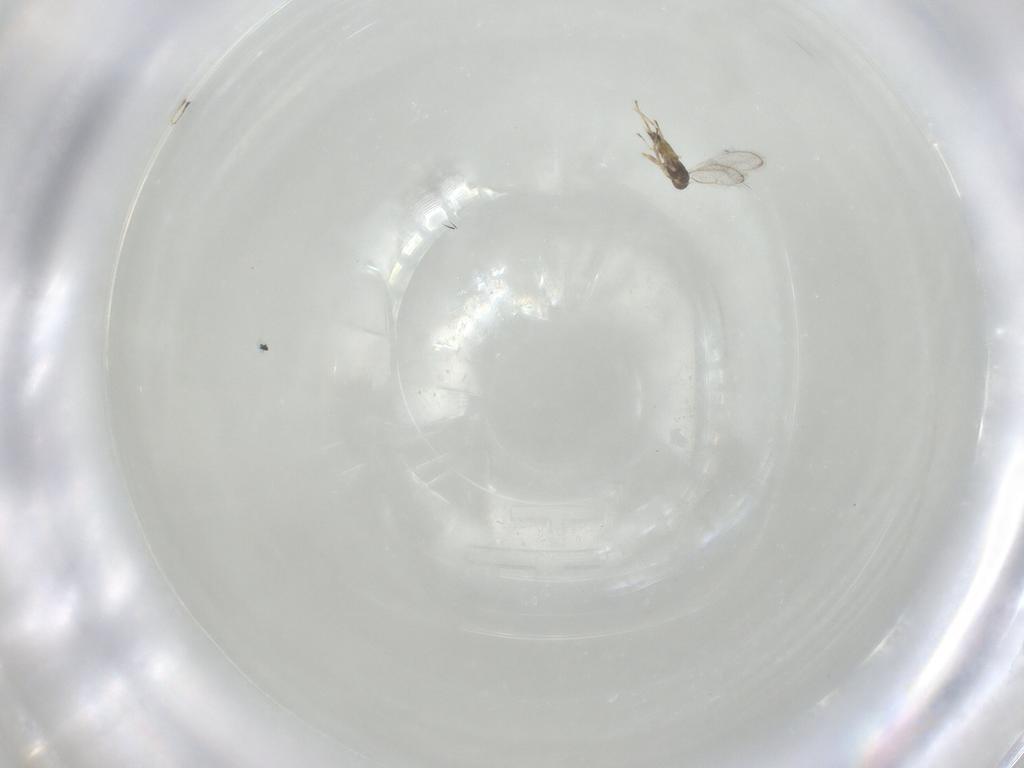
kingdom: Animalia
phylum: Arthropoda
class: Insecta
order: Hymenoptera
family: Eulophidae
